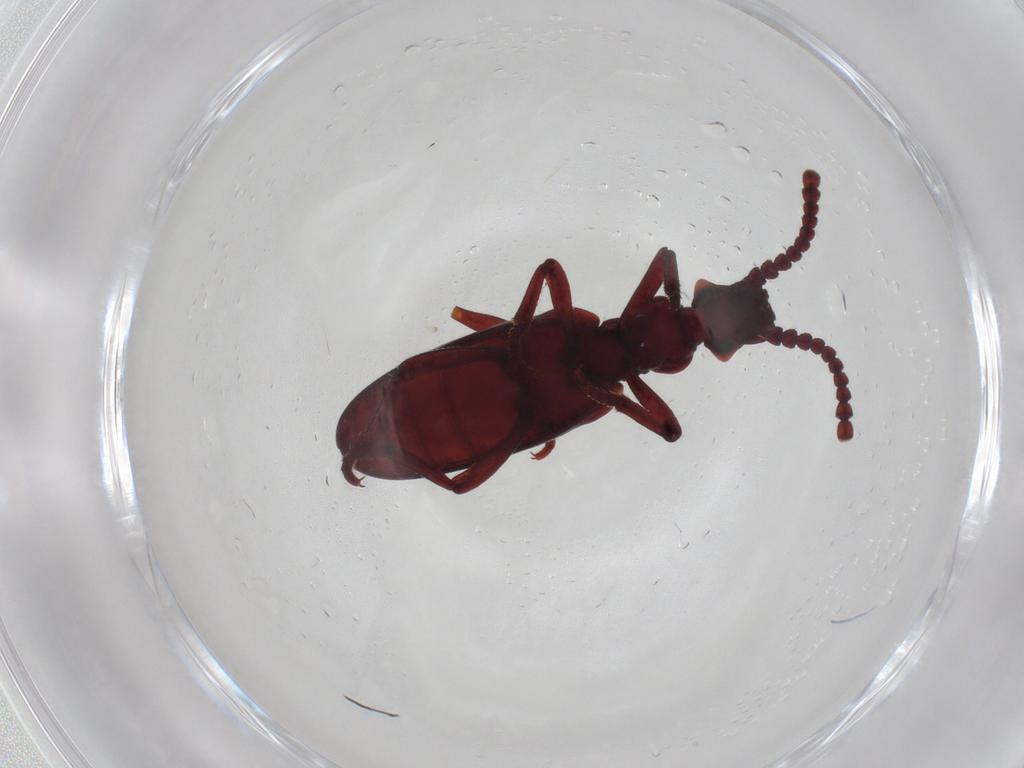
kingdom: Animalia
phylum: Arthropoda
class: Insecta
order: Coleoptera
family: Anthicidae
